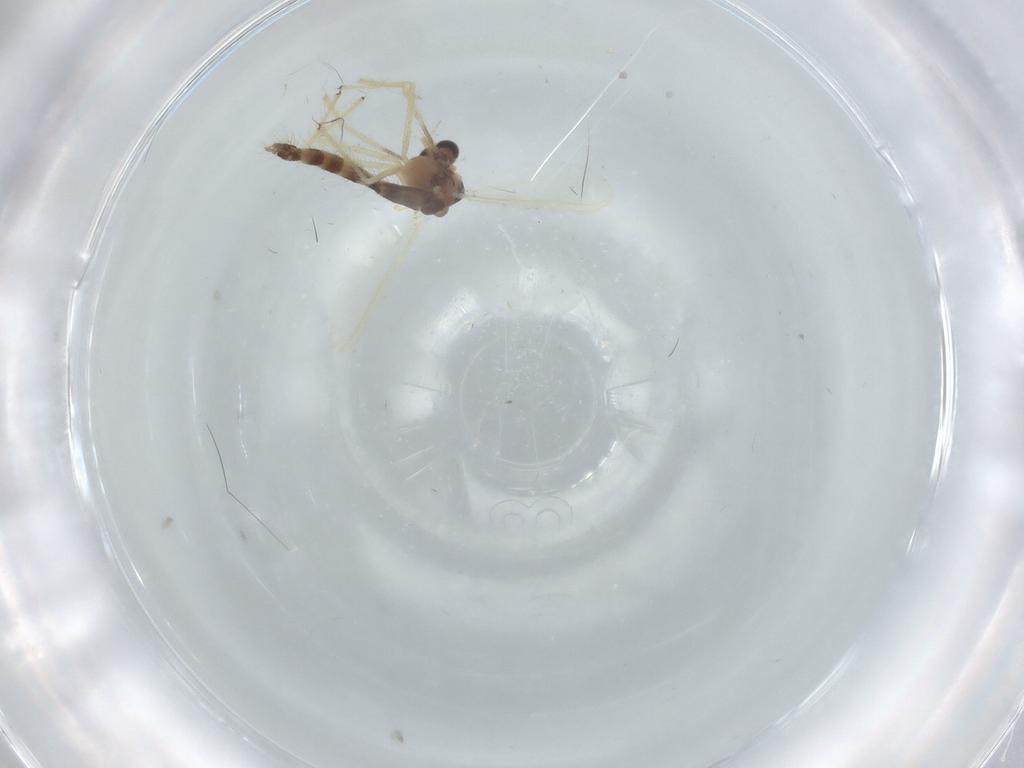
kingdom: Animalia
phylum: Arthropoda
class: Insecta
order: Diptera
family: Chironomidae
